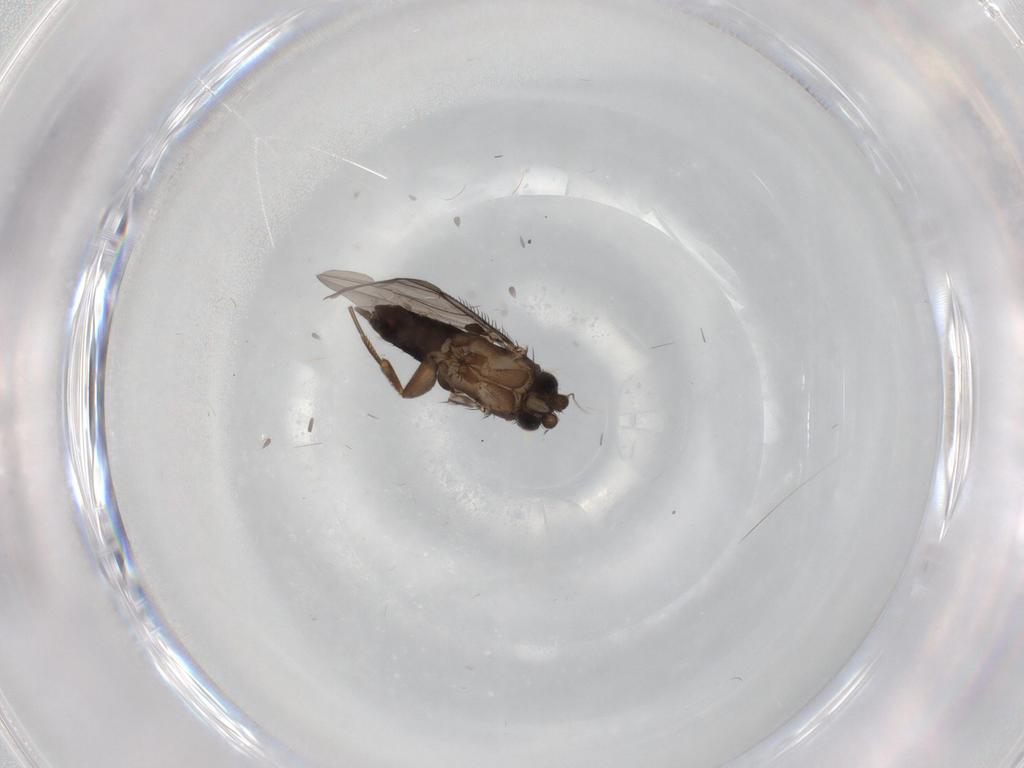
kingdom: Animalia
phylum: Arthropoda
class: Insecta
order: Diptera
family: Phoridae
